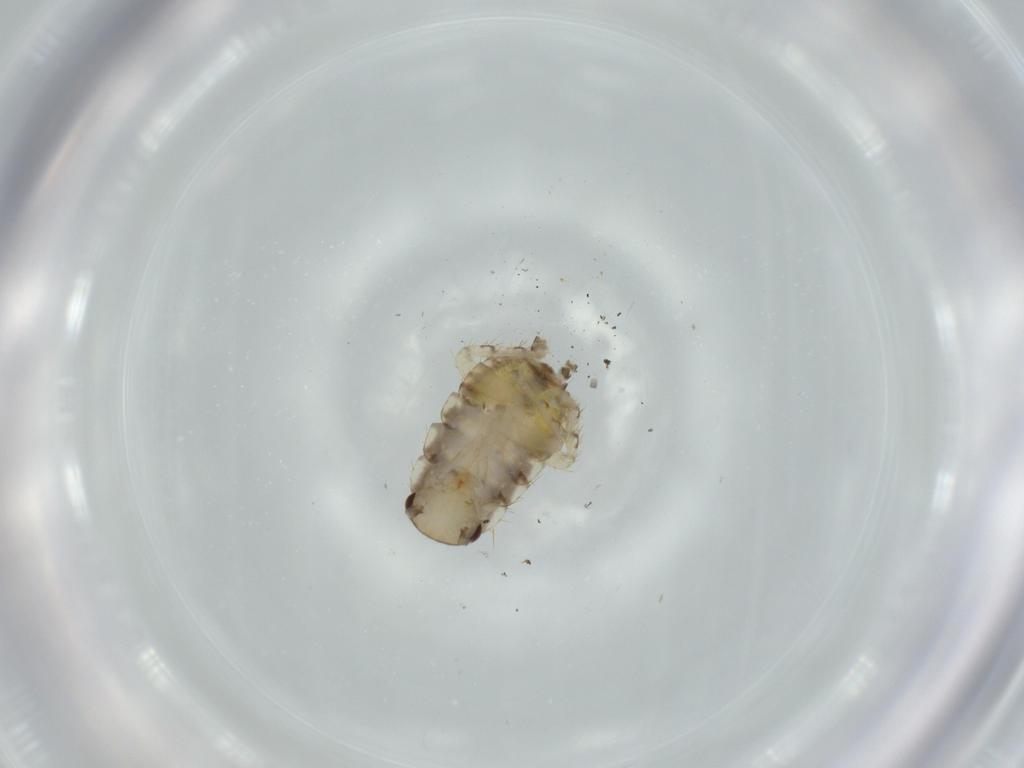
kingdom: Animalia
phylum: Arthropoda
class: Insecta
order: Blattodea
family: Ectobiidae
